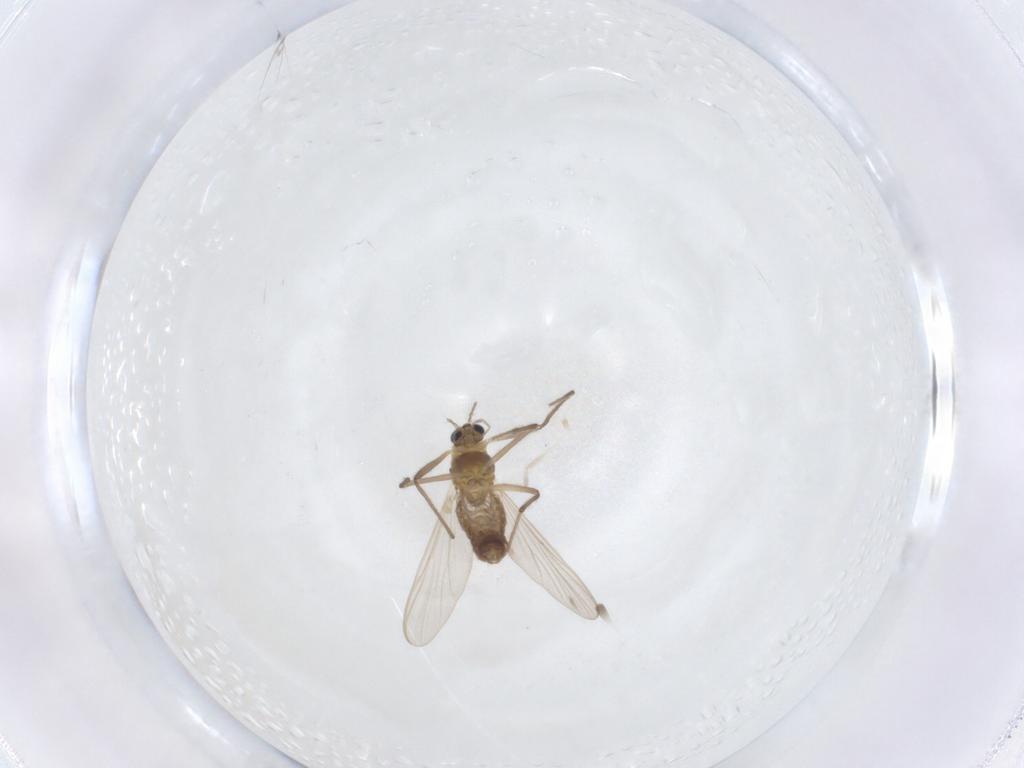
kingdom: Animalia
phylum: Arthropoda
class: Insecta
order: Diptera
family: Chironomidae
